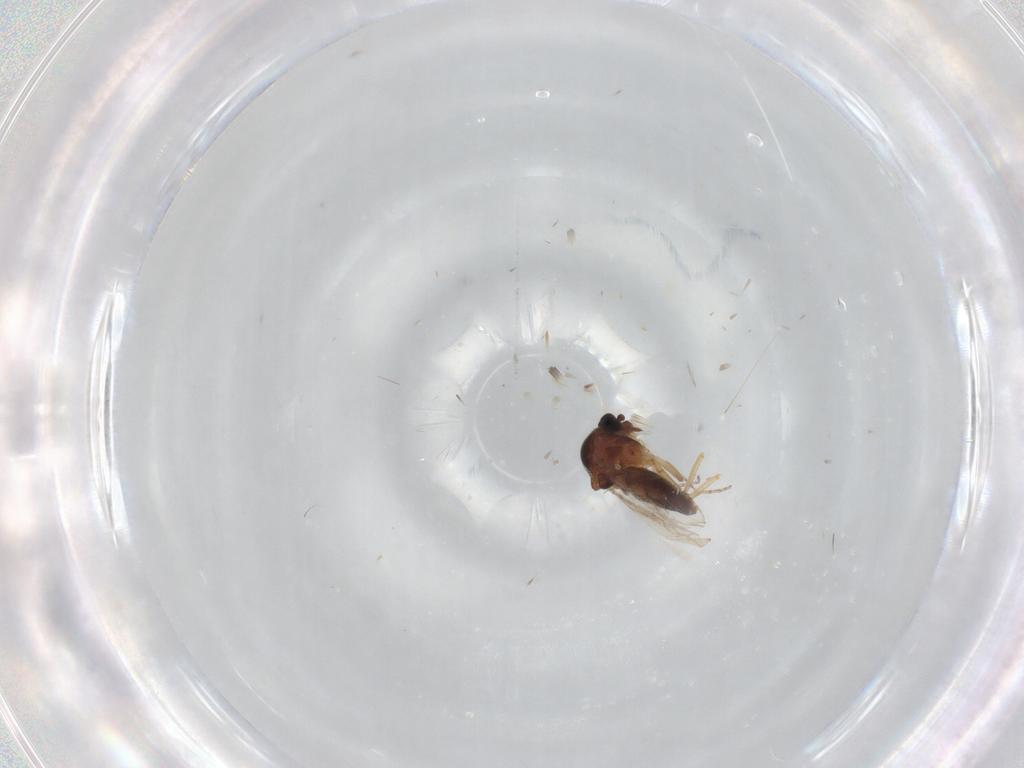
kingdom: Animalia
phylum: Arthropoda
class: Insecta
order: Diptera
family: Ceratopogonidae
